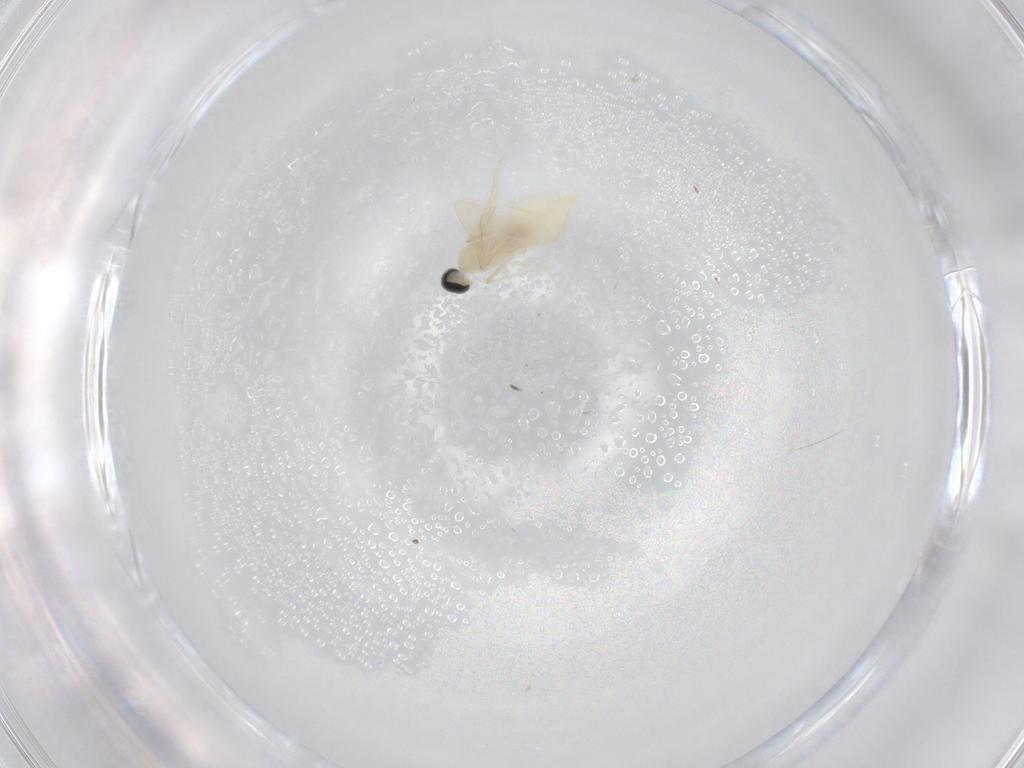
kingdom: Animalia
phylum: Arthropoda
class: Insecta
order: Diptera
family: Cecidomyiidae
